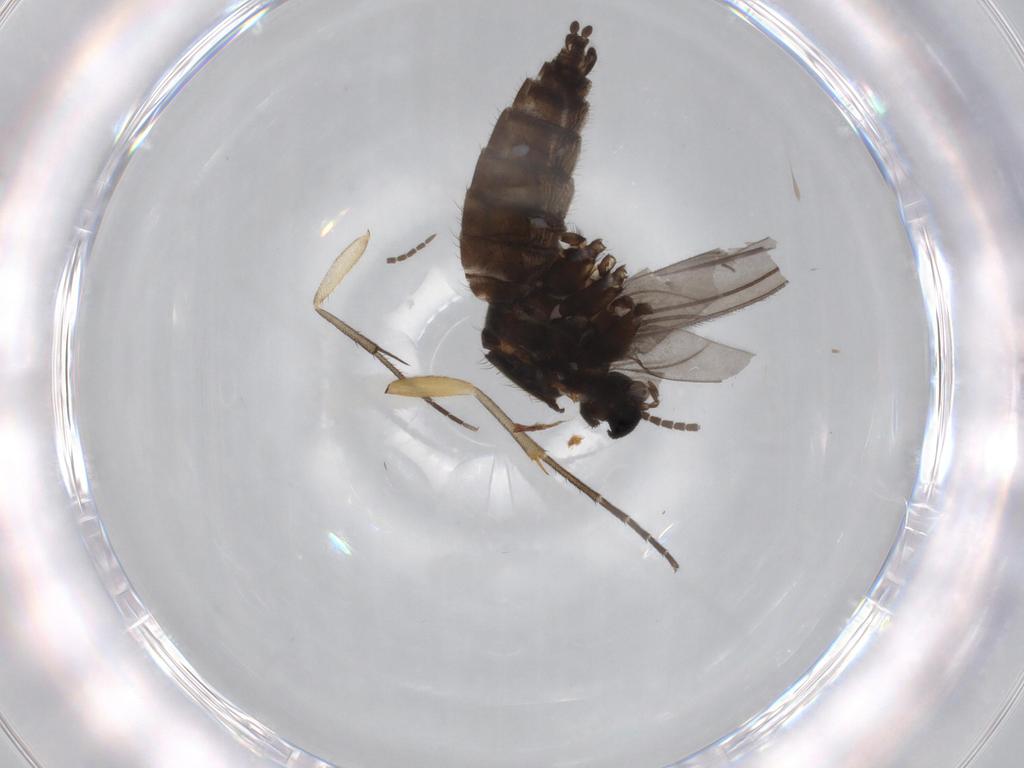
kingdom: Animalia
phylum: Arthropoda
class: Insecta
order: Diptera
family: Sciaridae
